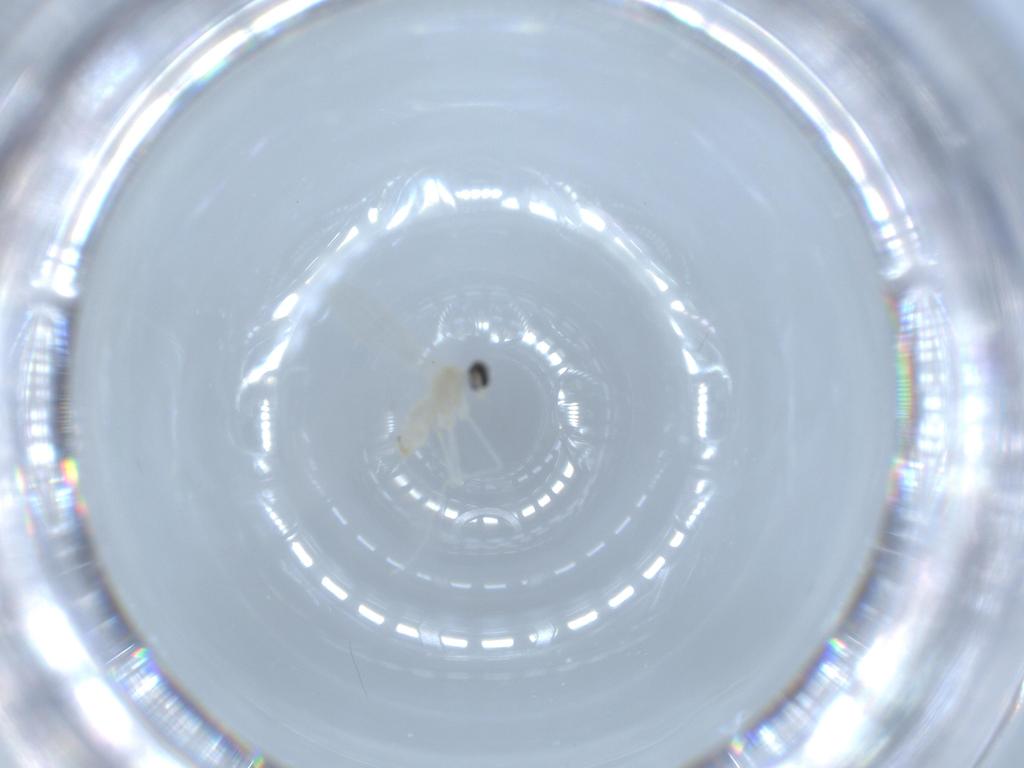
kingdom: Animalia
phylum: Arthropoda
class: Insecta
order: Diptera
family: Cecidomyiidae
